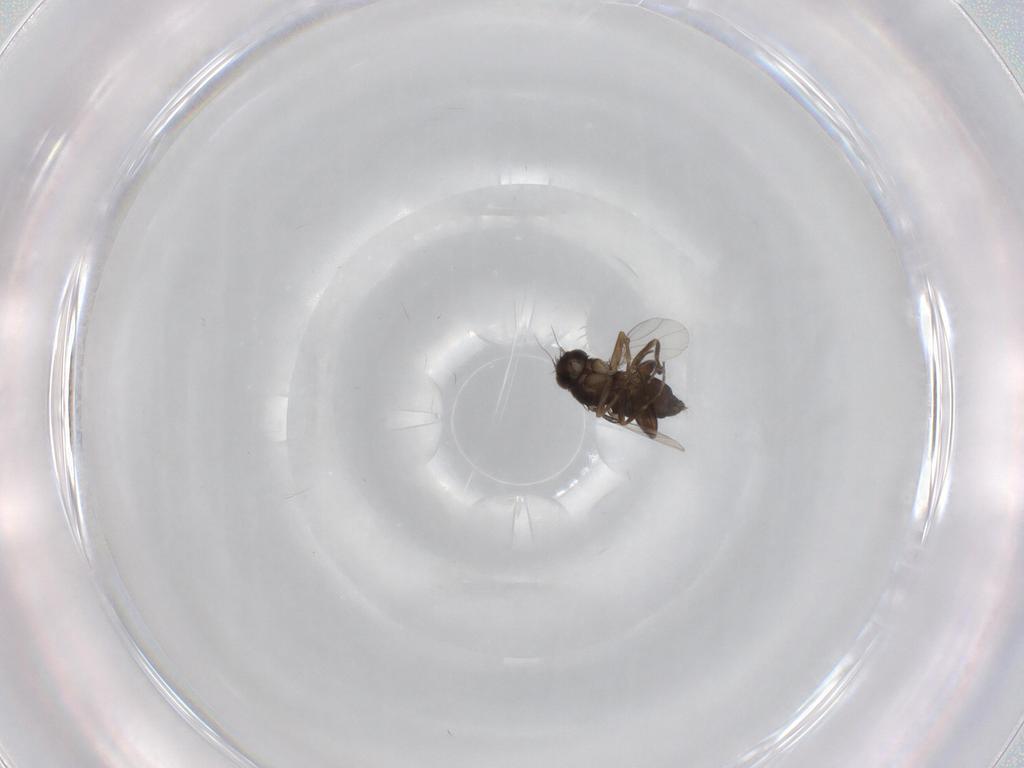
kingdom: Animalia
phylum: Arthropoda
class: Insecta
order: Diptera
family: Phoridae
